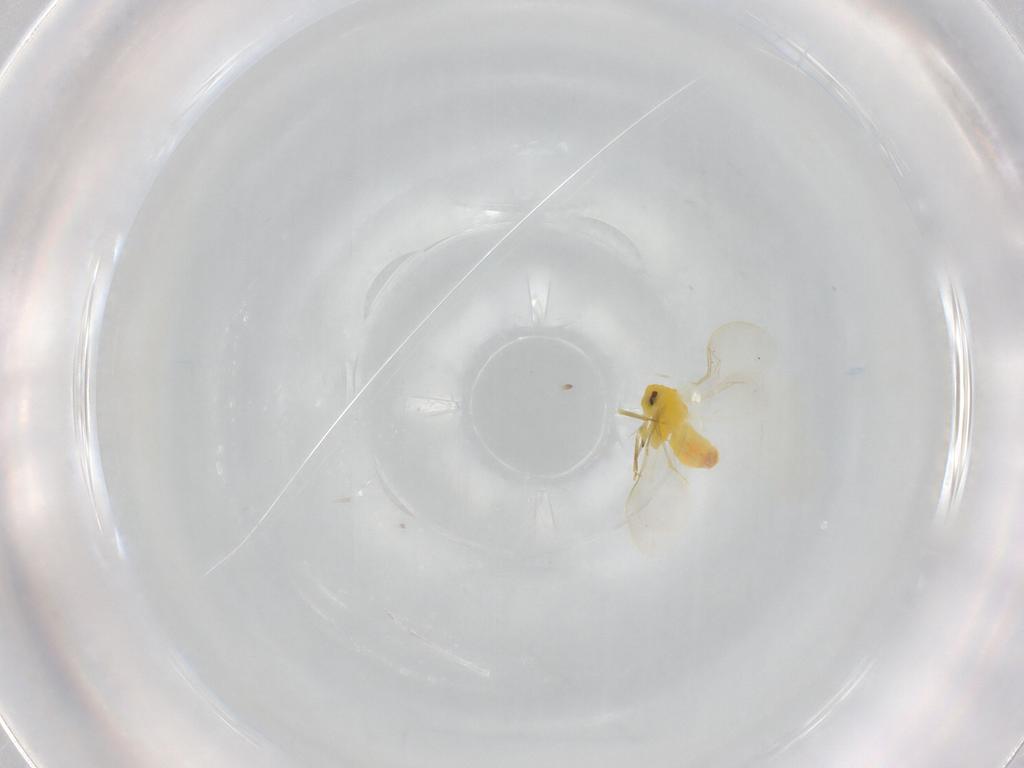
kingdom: Animalia
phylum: Arthropoda
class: Insecta
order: Hemiptera
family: Aleyrodidae
